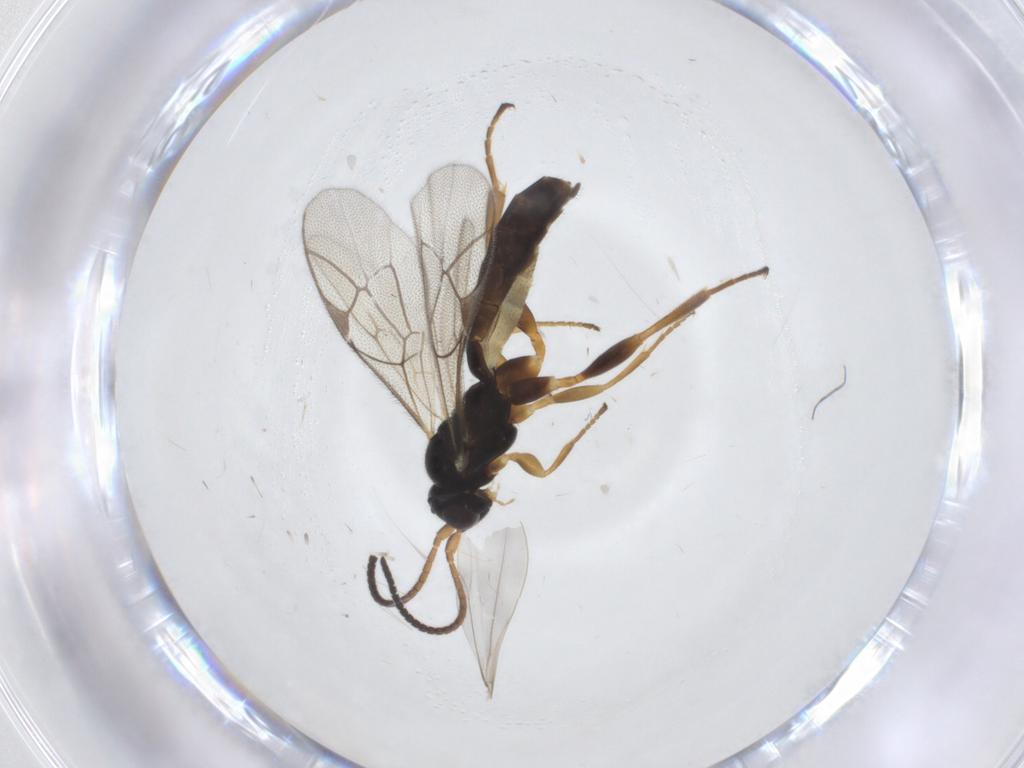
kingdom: Animalia
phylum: Arthropoda
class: Insecta
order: Hymenoptera
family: Ichneumonidae
